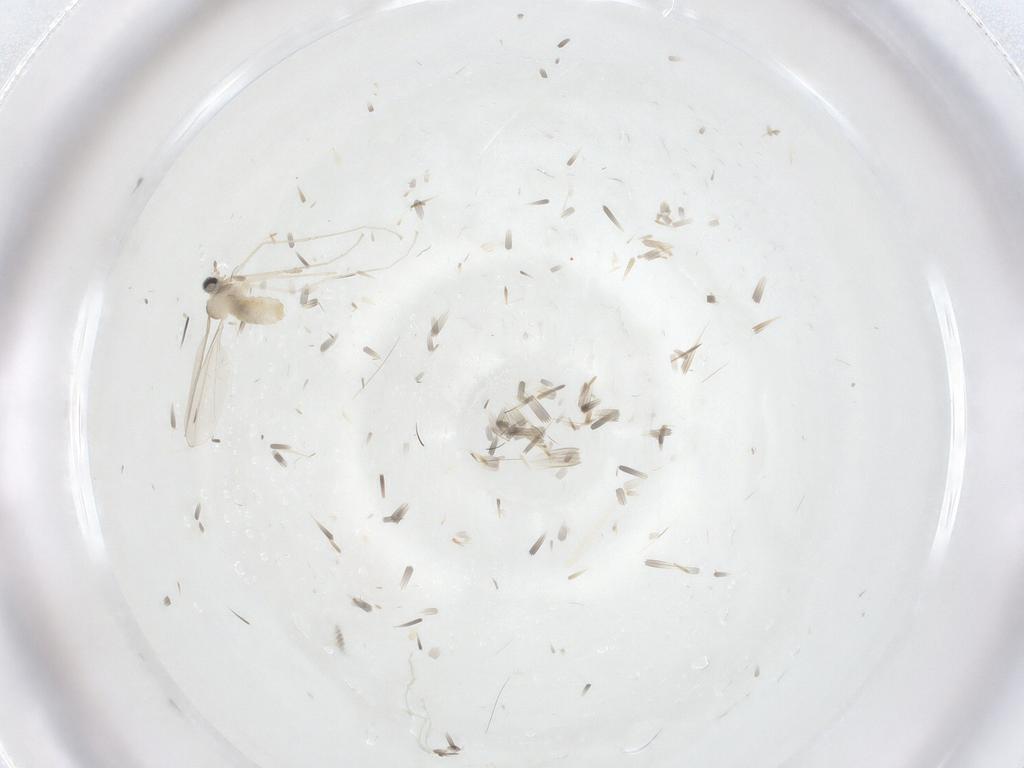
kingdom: Animalia
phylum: Arthropoda
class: Insecta
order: Diptera
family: Cecidomyiidae
